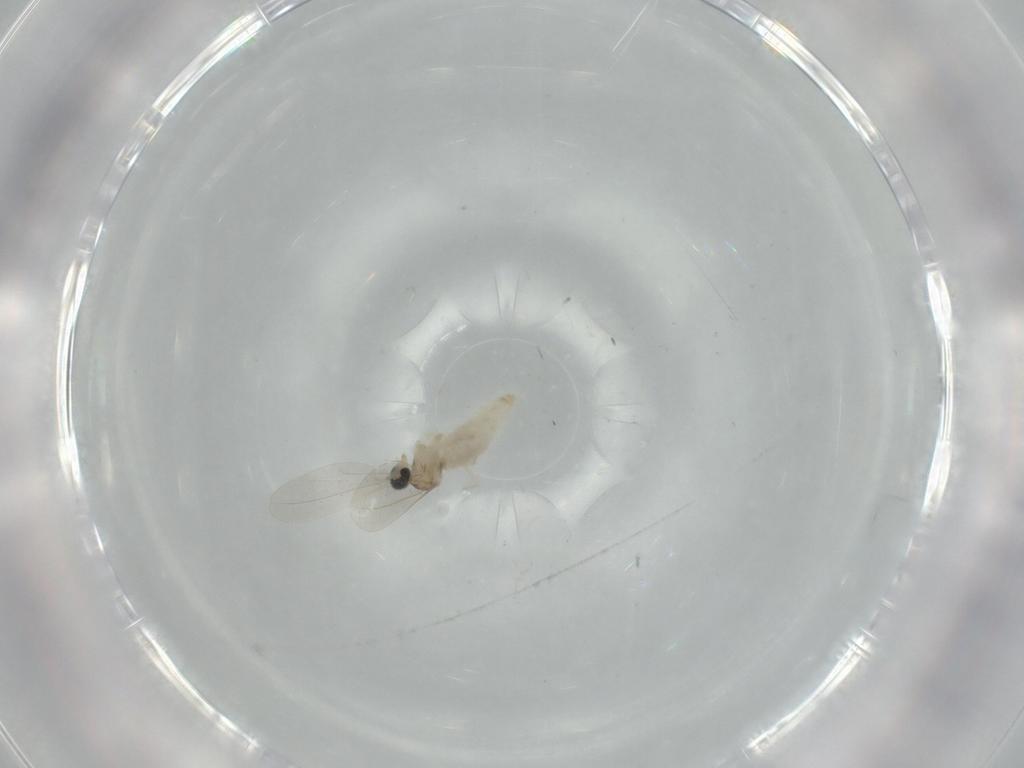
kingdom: Animalia
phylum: Arthropoda
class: Insecta
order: Diptera
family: Cecidomyiidae
